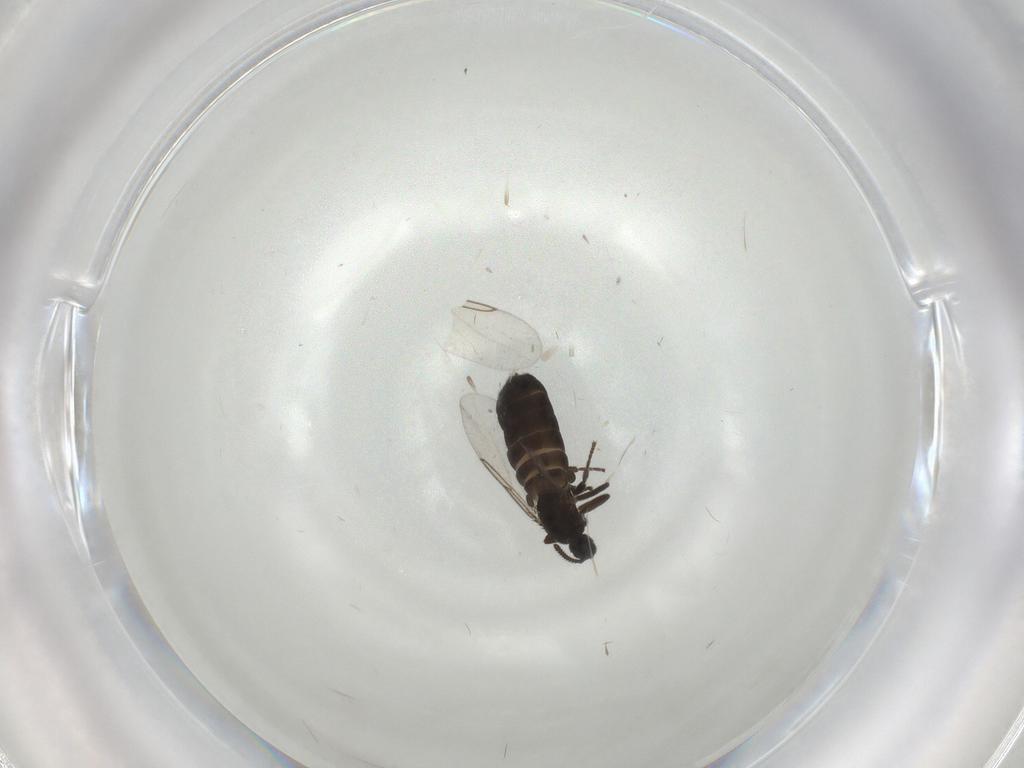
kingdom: Animalia
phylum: Arthropoda
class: Insecta
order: Diptera
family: Scatopsidae
